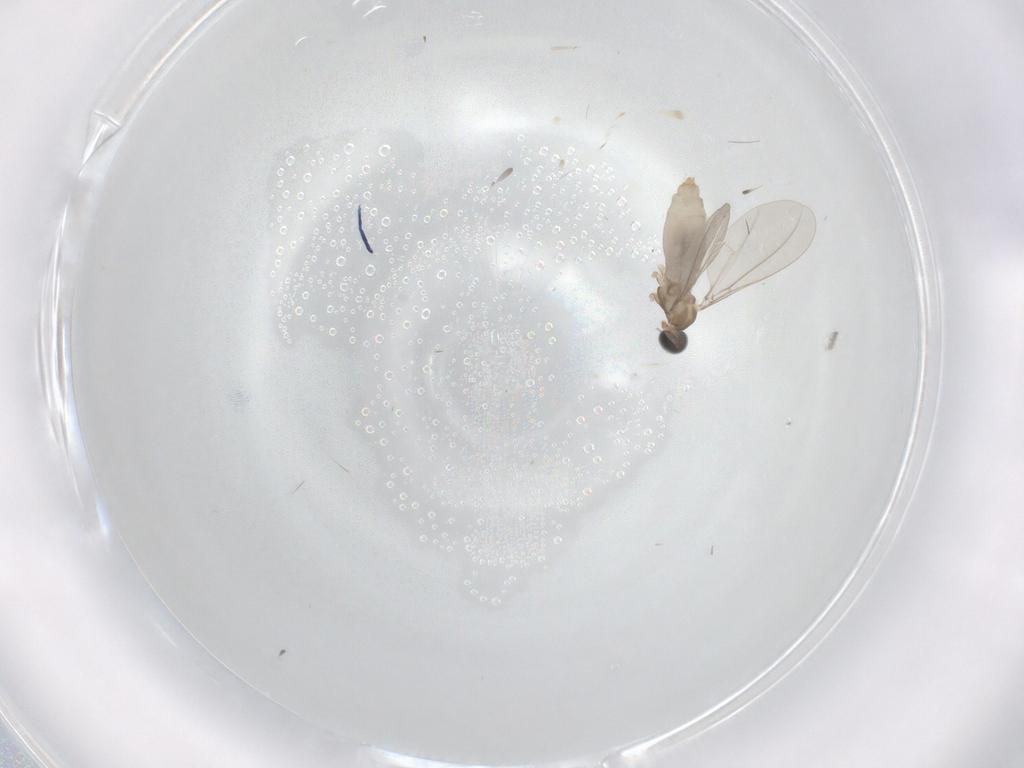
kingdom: Animalia
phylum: Arthropoda
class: Insecta
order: Diptera
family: Cecidomyiidae
